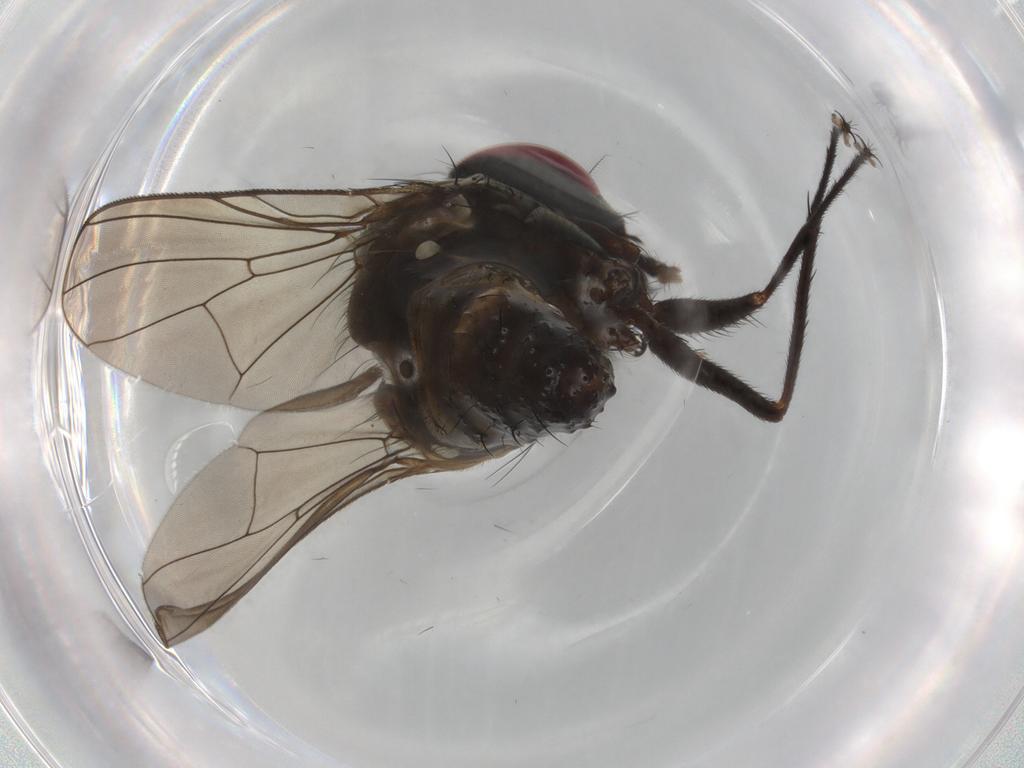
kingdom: Animalia
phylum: Arthropoda
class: Insecta
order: Diptera
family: Muscidae
